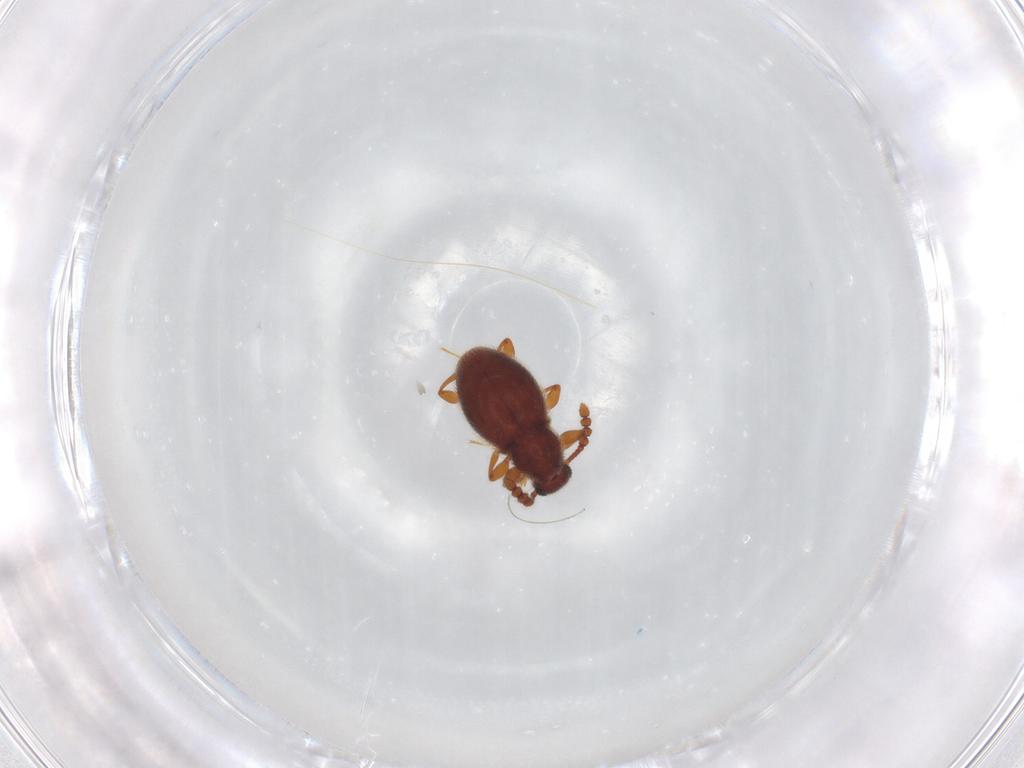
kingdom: Animalia
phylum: Arthropoda
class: Insecta
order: Coleoptera
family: Staphylinidae
